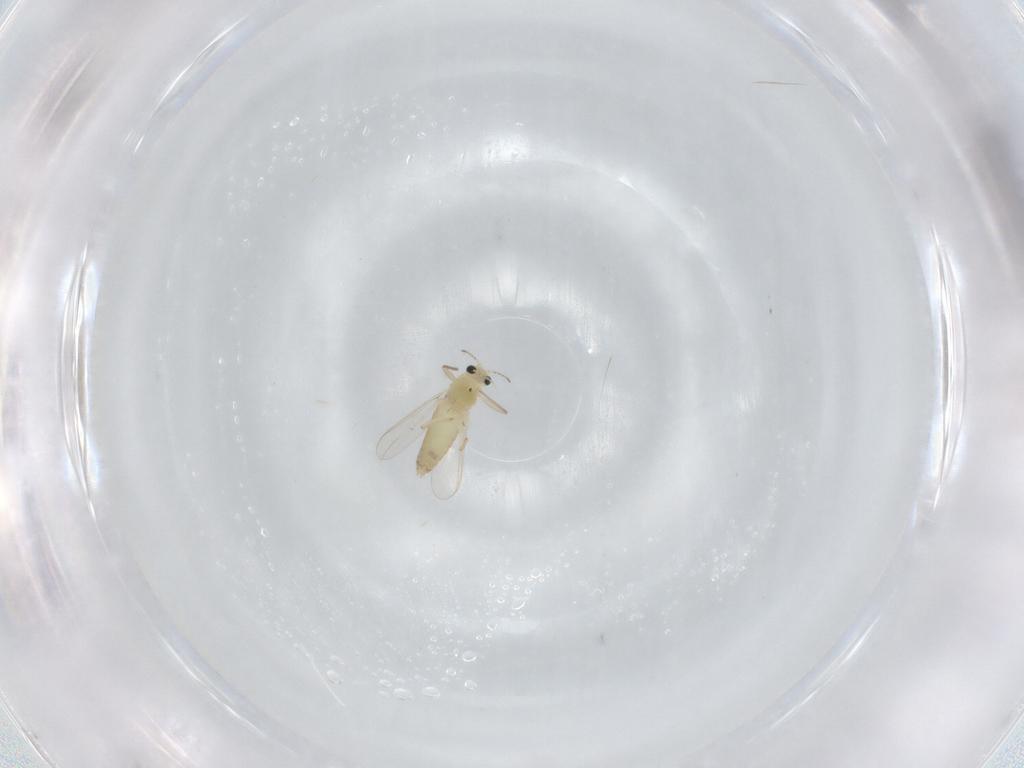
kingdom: Animalia
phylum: Arthropoda
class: Insecta
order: Diptera
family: Chironomidae
